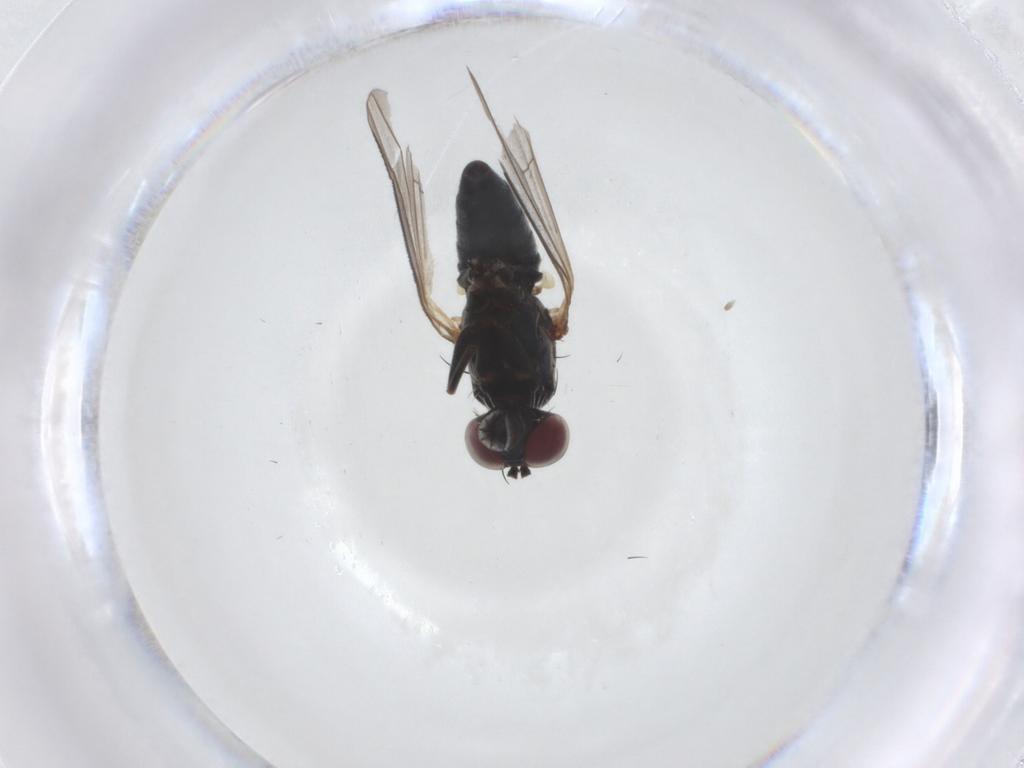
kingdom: Animalia
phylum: Arthropoda
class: Insecta
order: Diptera
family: Dolichopodidae
